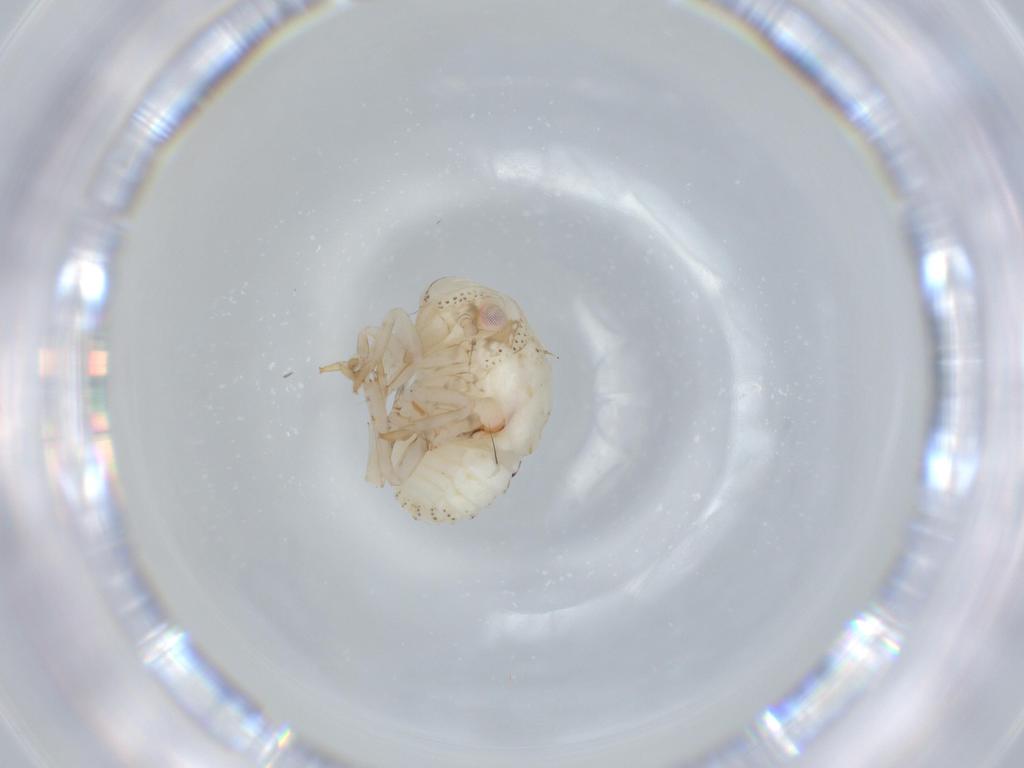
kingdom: Animalia
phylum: Arthropoda
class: Insecta
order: Hemiptera
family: Acanaloniidae
